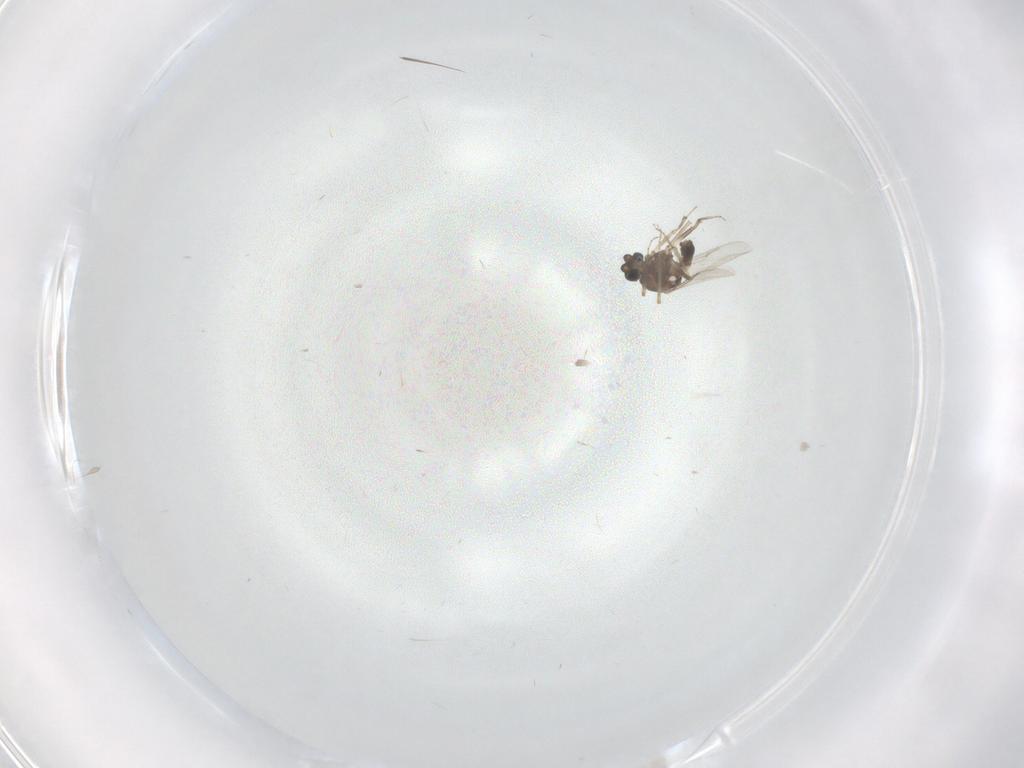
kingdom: Animalia
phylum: Arthropoda
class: Insecta
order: Diptera
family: Ceratopogonidae
